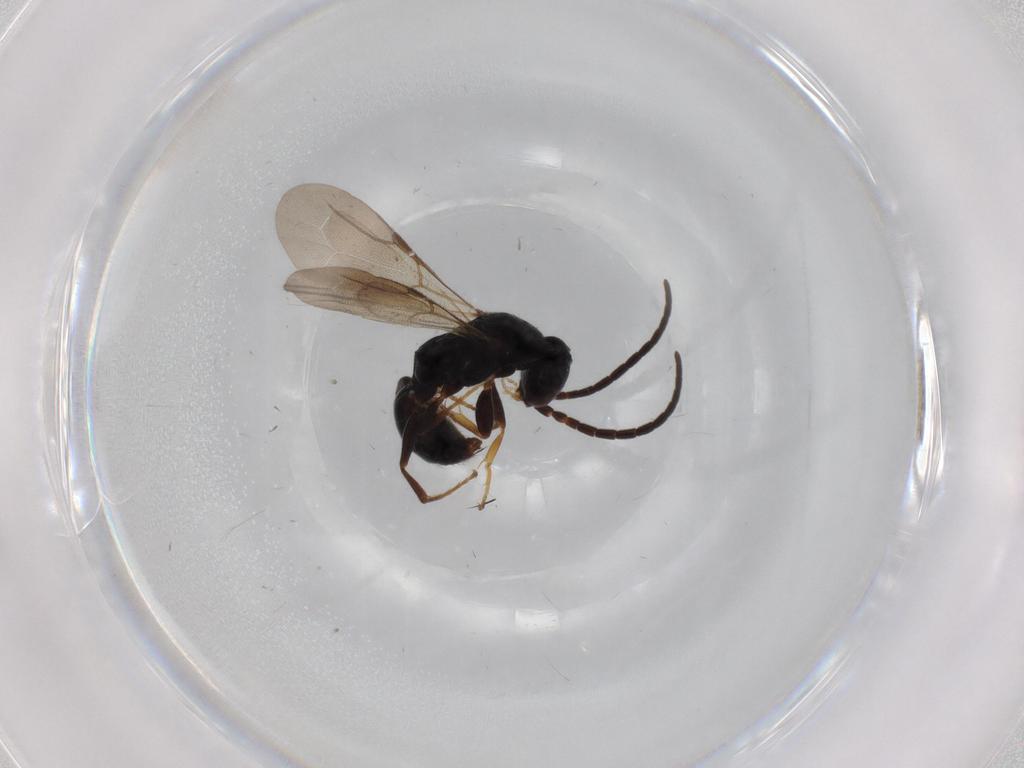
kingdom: Animalia
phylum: Arthropoda
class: Insecta
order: Hymenoptera
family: Bethylidae
